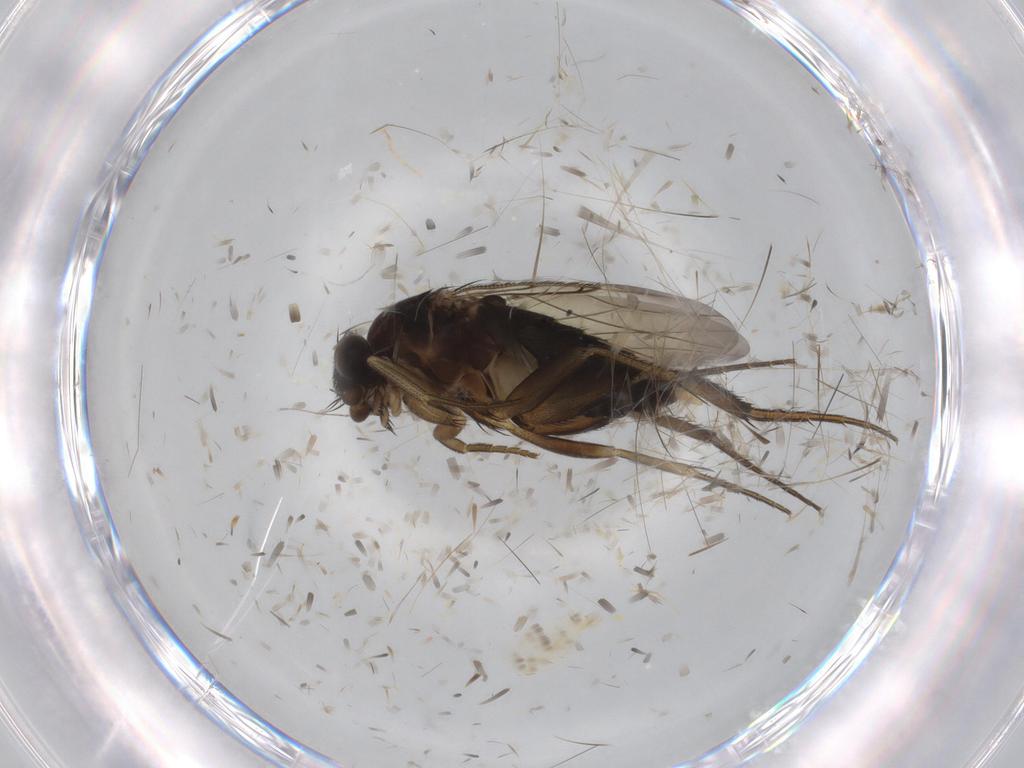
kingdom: Animalia
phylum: Arthropoda
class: Insecta
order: Diptera
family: Phoridae
